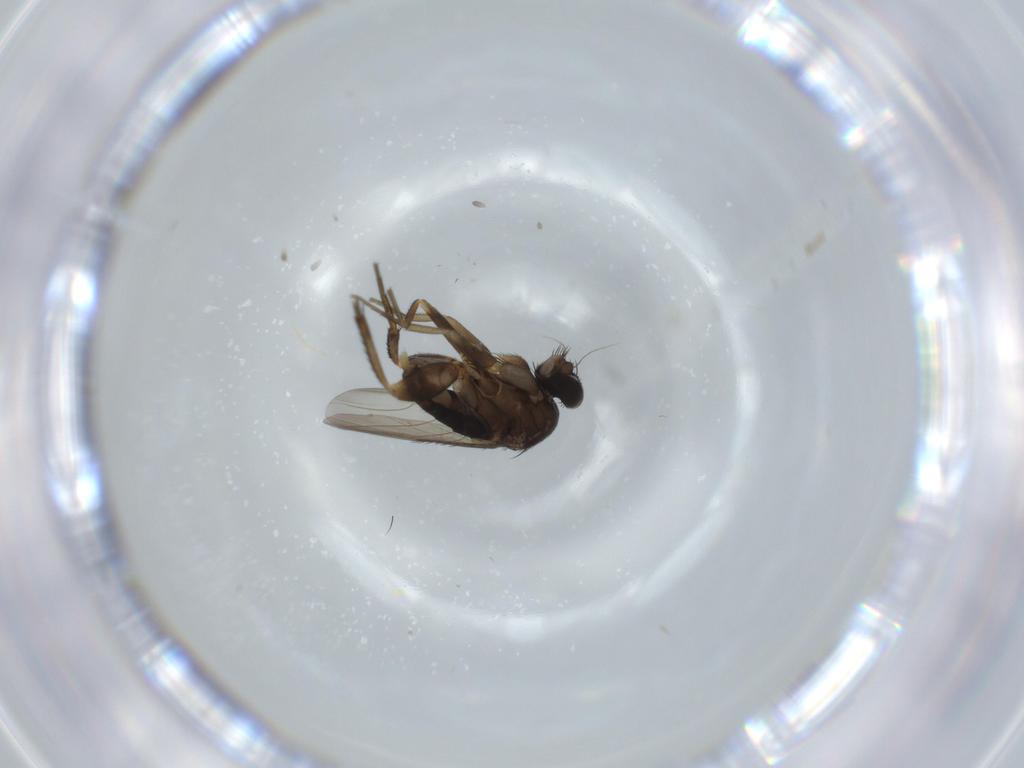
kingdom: Animalia
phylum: Arthropoda
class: Insecta
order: Diptera
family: Phoridae
